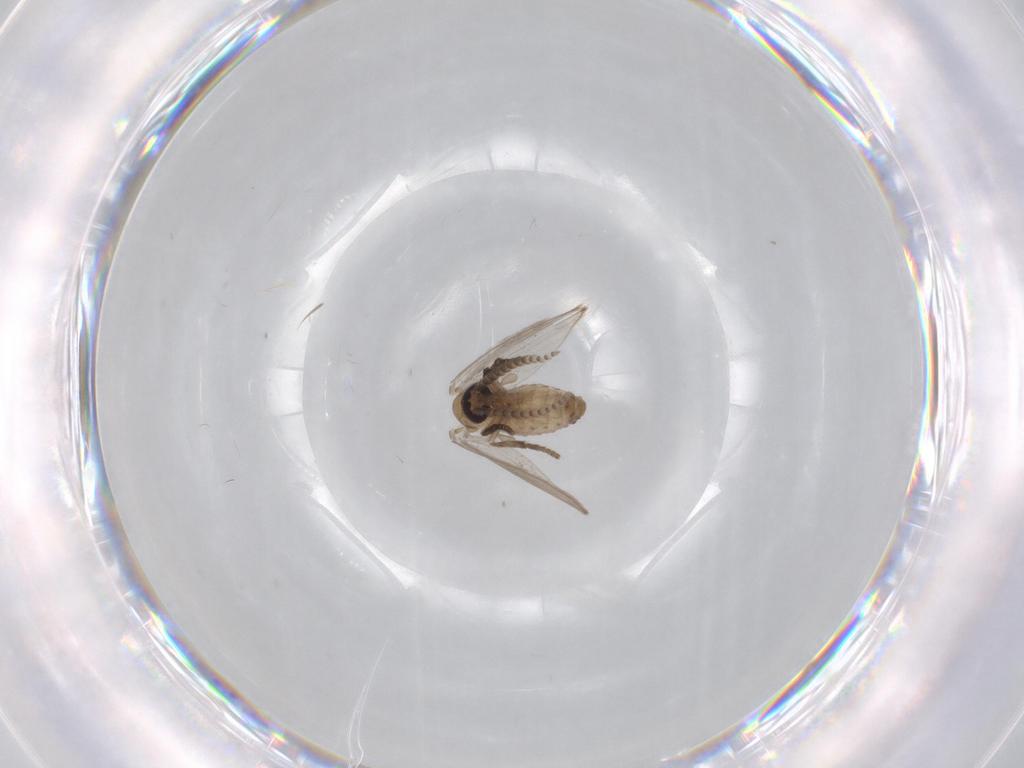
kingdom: Animalia
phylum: Arthropoda
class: Insecta
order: Diptera
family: Psychodidae
